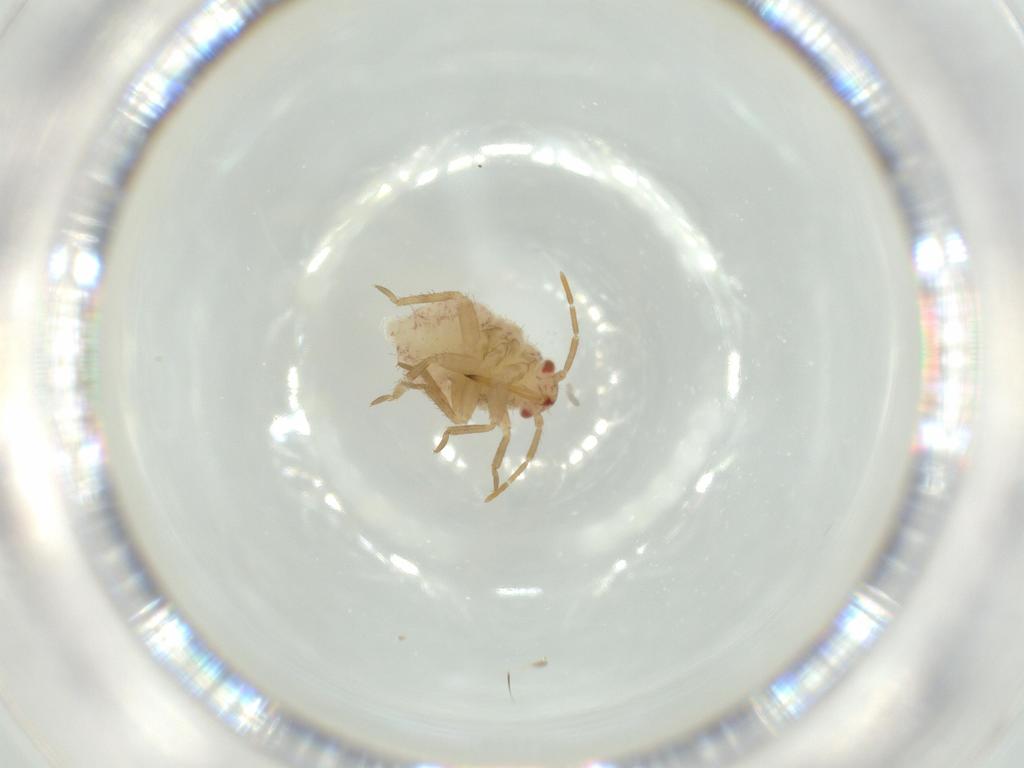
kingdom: Animalia
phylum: Arthropoda
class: Insecta
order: Hemiptera
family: Miridae
